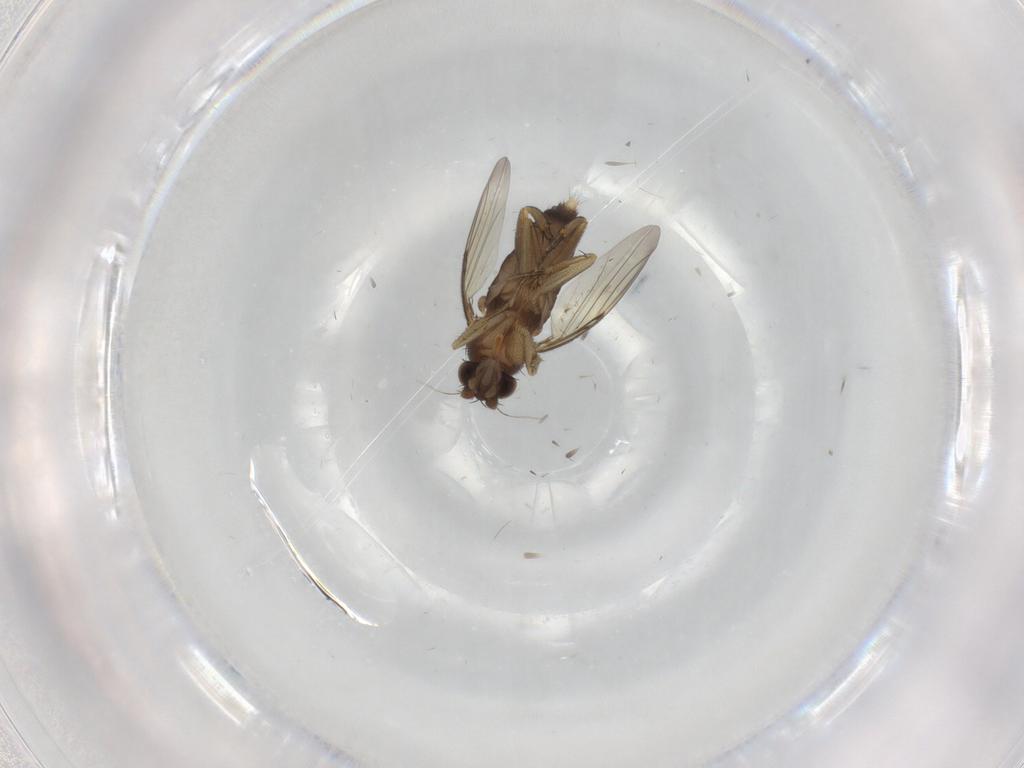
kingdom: Animalia
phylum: Arthropoda
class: Insecta
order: Diptera
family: Phoridae
